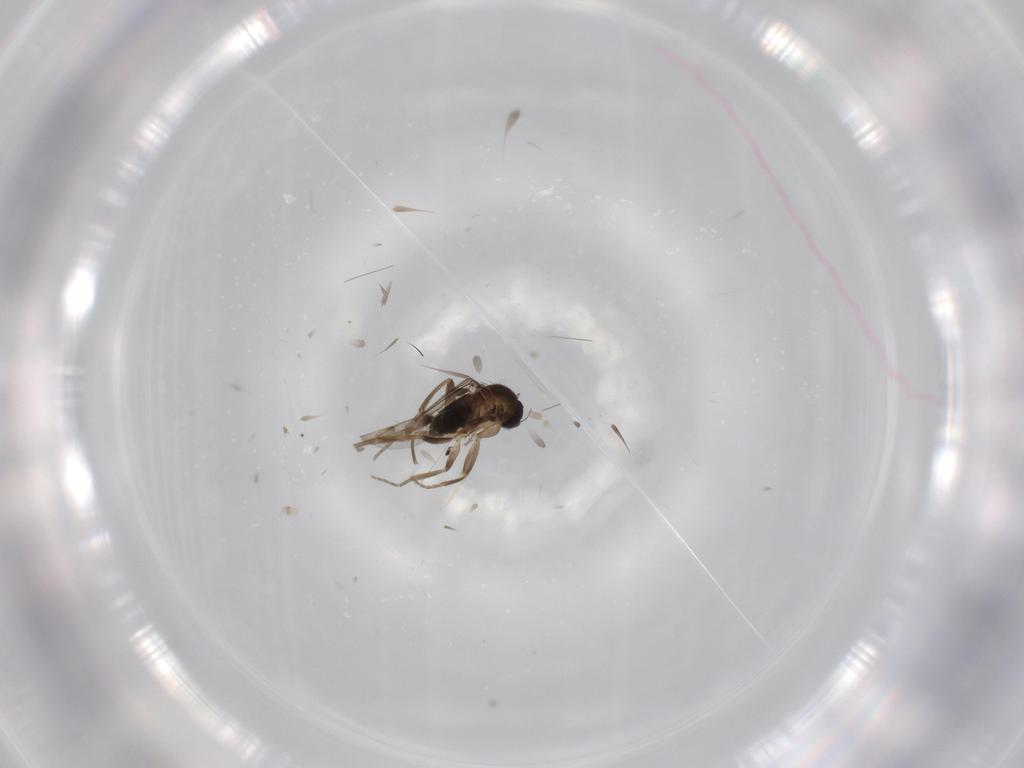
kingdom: Animalia
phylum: Arthropoda
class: Insecta
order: Diptera
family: Phoridae
